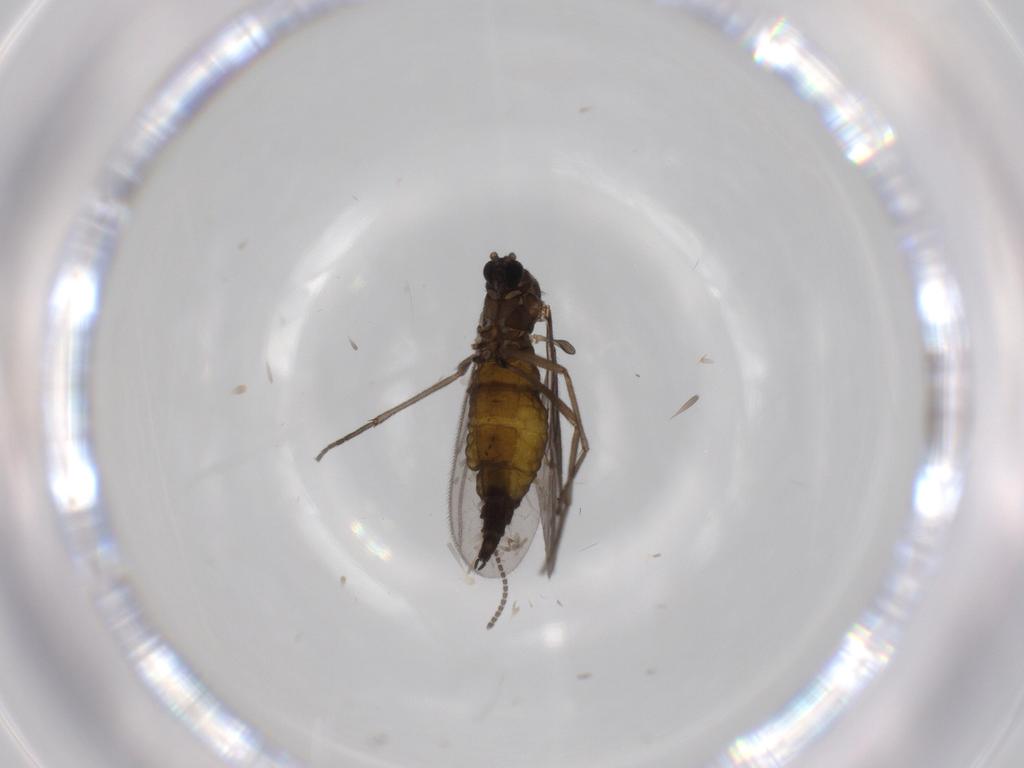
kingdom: Animalia
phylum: Arthropoda
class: Insecta
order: Diptera
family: Sciaridae
